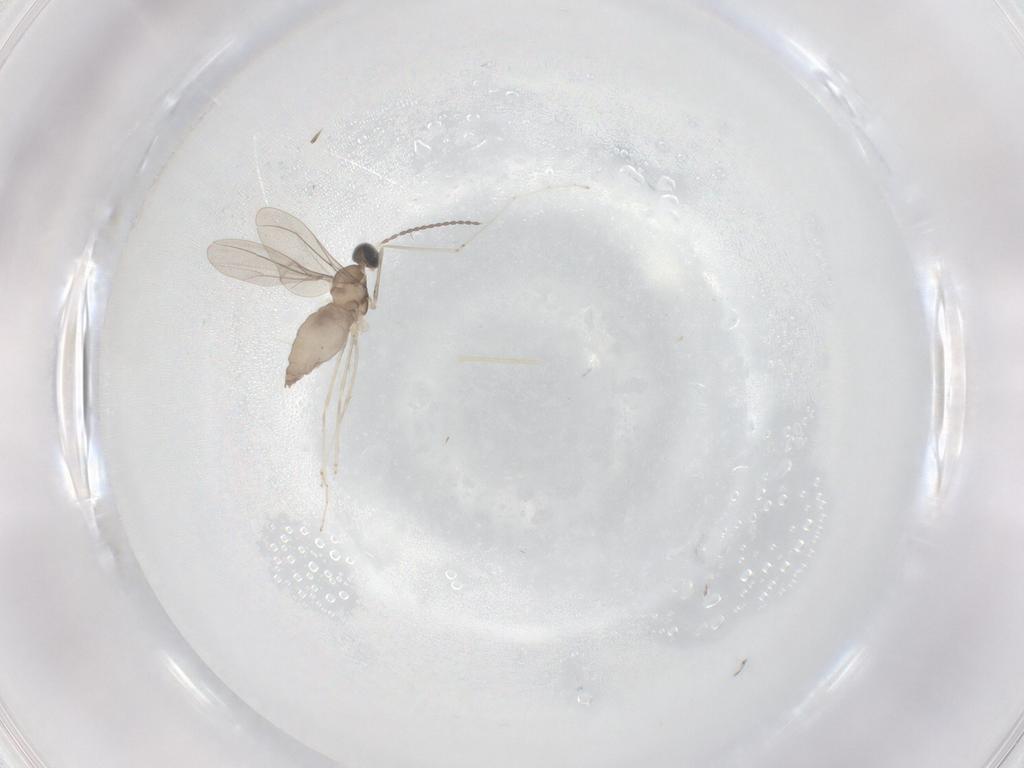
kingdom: Animalia
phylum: Arthropoda
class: Insecta
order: Diptera
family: Cecidomyiidae
